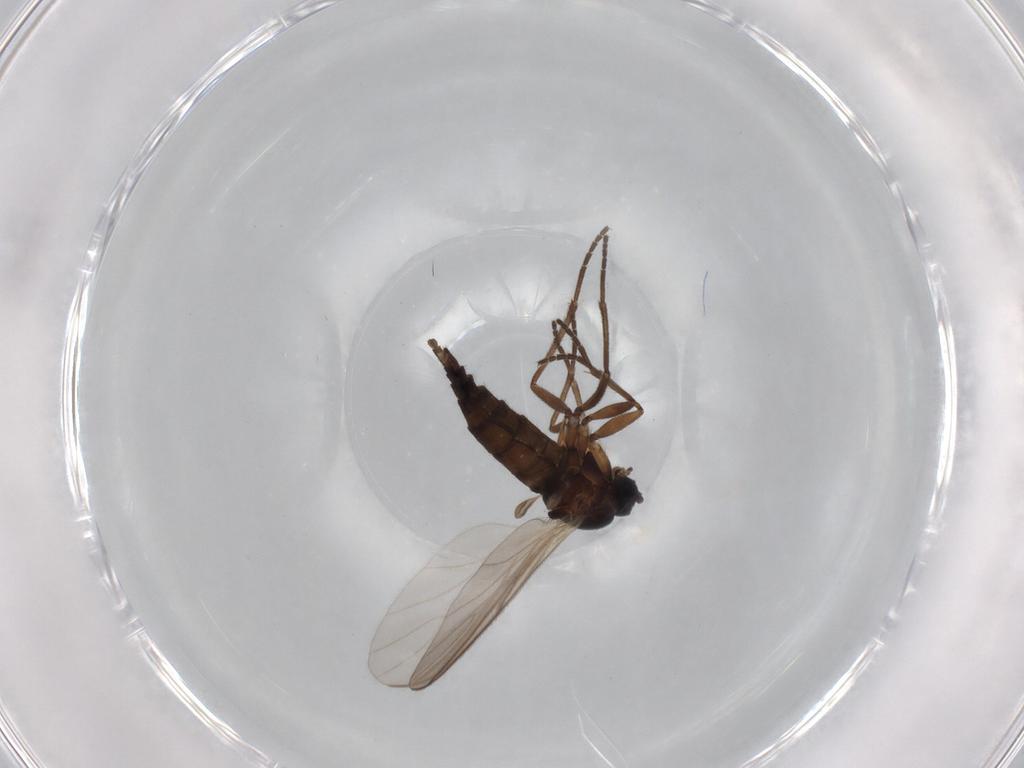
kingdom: Animalia
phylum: Arthropoda
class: Insecta
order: Diptera
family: Sciaridae
